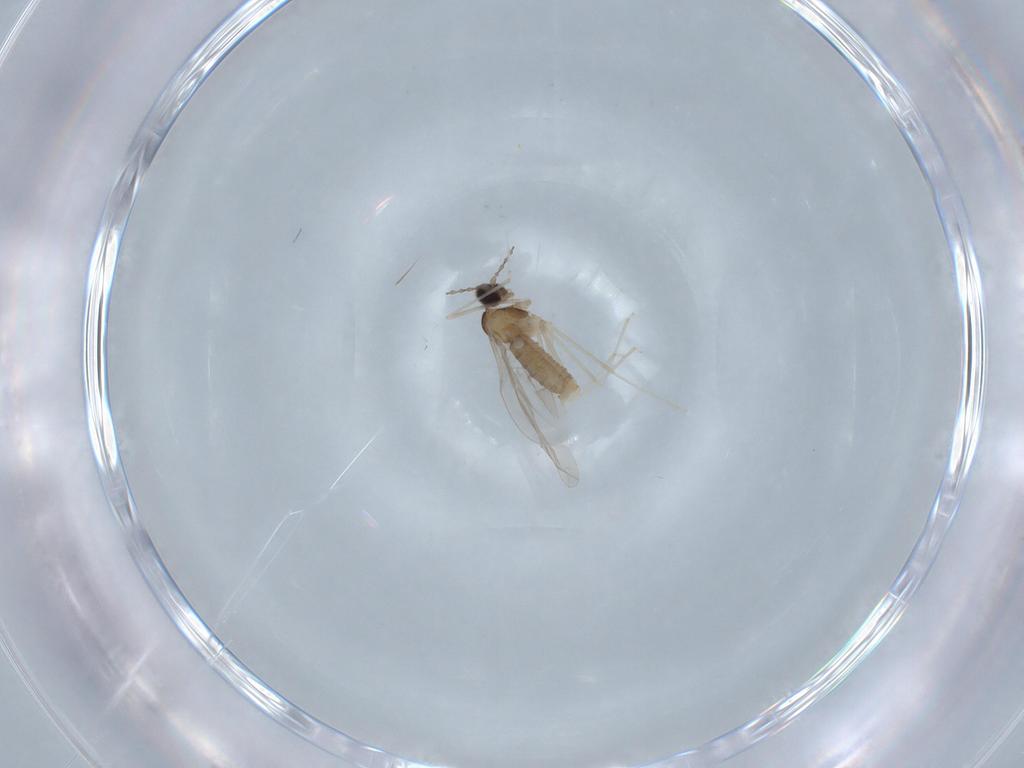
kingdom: Animalia
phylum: Arthropoda
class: Insecta
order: Diptera
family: Cecidomyiidae
